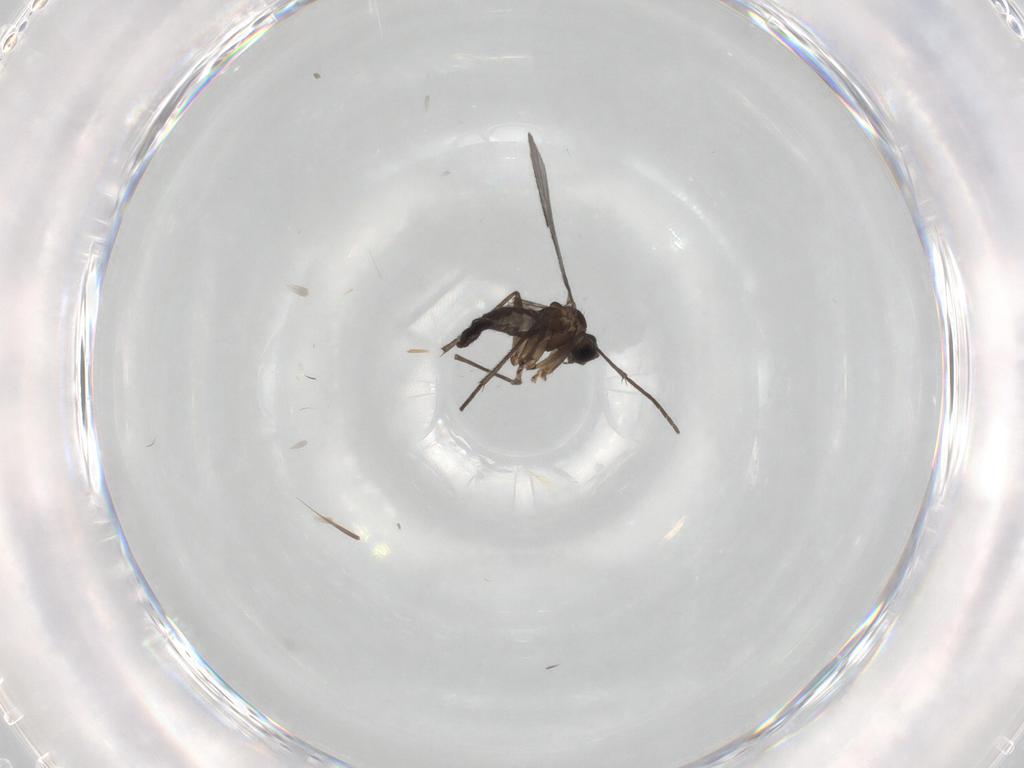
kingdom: Animalia
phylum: Arthropoda
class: Insecta
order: Diptera
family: Sciaridae
